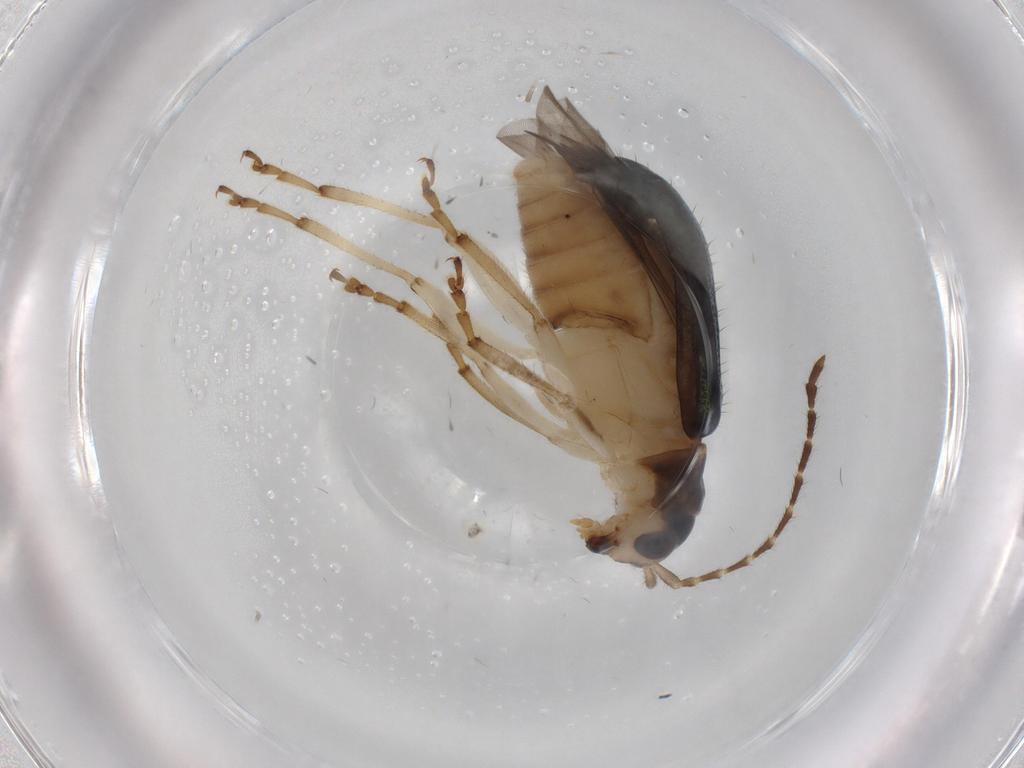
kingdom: Animalia
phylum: Arthropoda
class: Insecta
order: Coleoptera
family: Chrysomelidae
